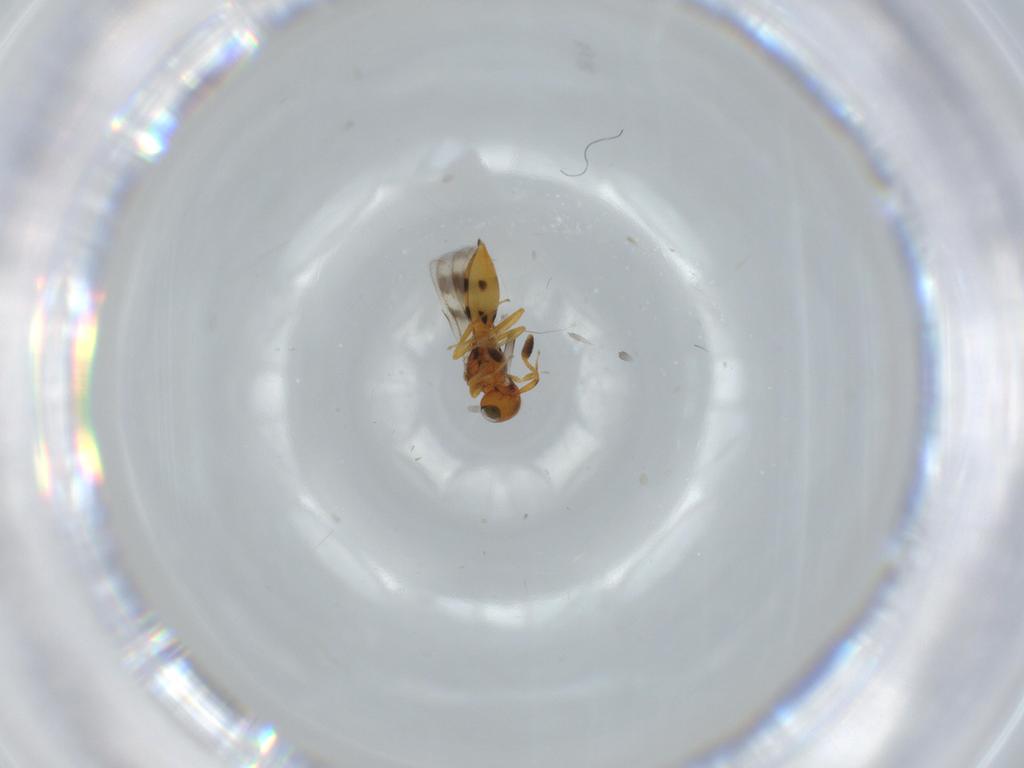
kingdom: Animalia
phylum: Arthropoda
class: Insecta
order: Hymenoptera
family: Scelionidae
